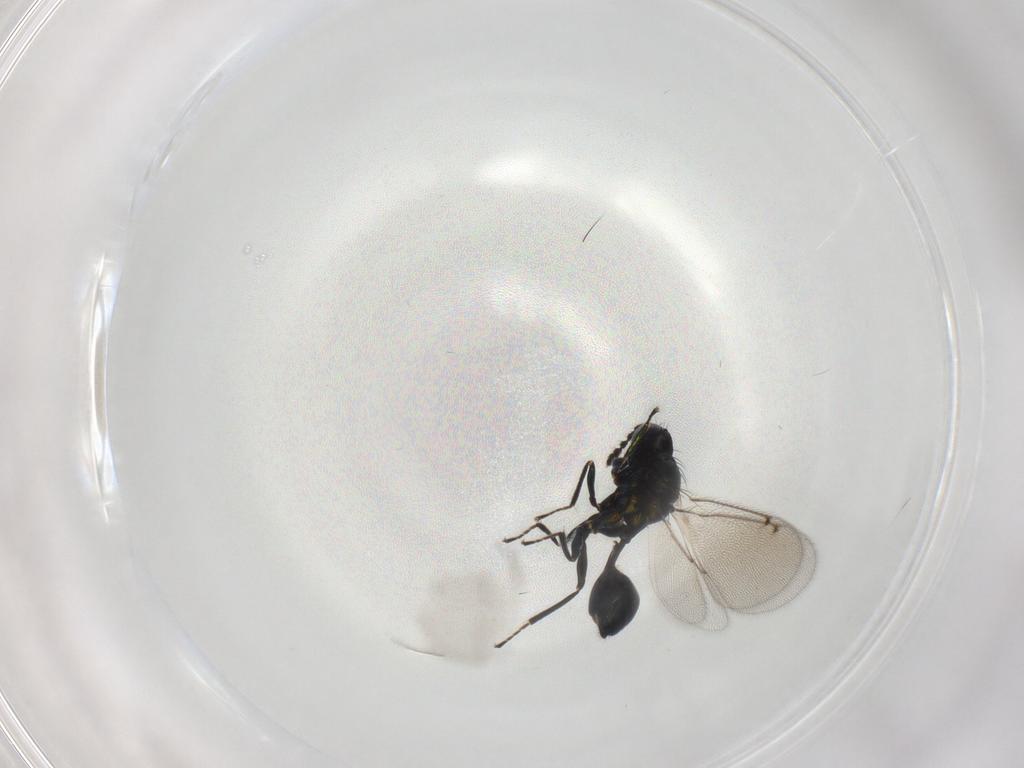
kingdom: Animalia
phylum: Arthropoda
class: Insecta
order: Hymenoptera
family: Eulophidae
